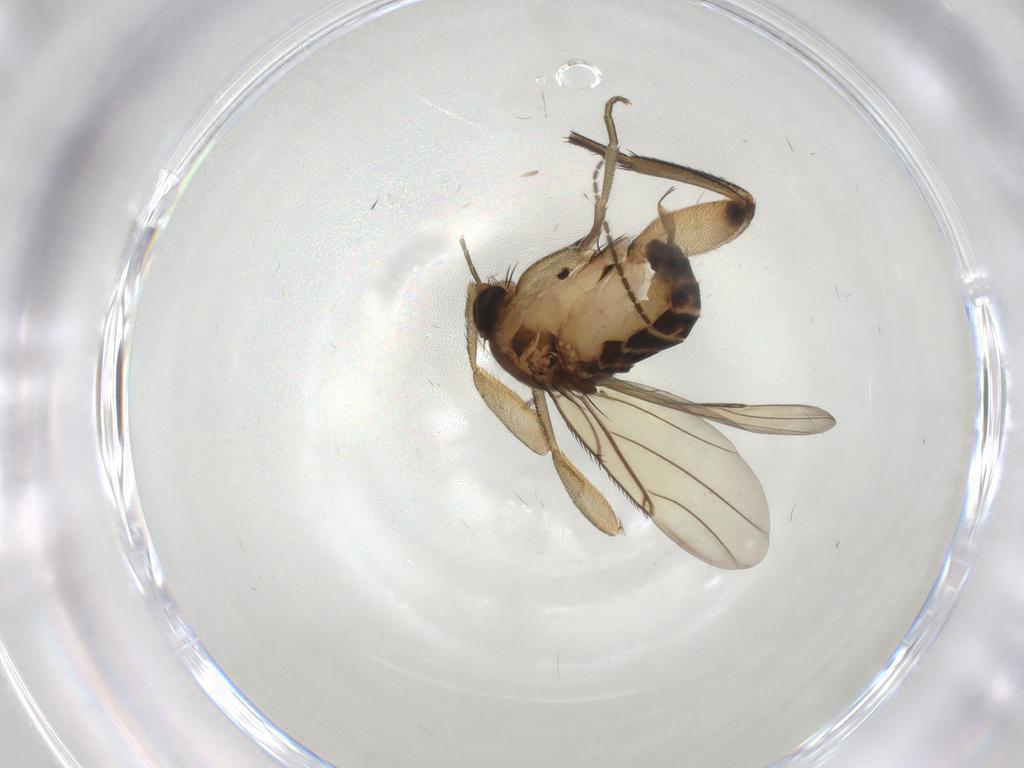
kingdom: Animalia
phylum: Arthropoda
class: Insecta
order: Diptera
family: Phoridae
